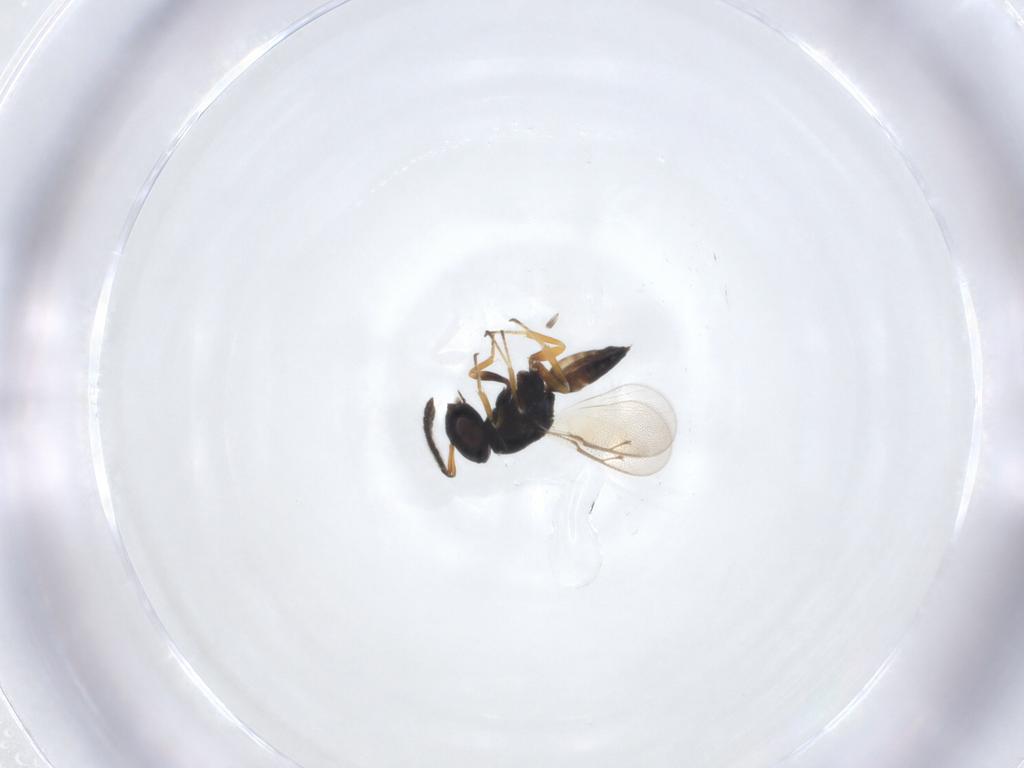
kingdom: Animalia
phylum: Arthropoda
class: Insecta
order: Hymenoptera
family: Pteromalidae
